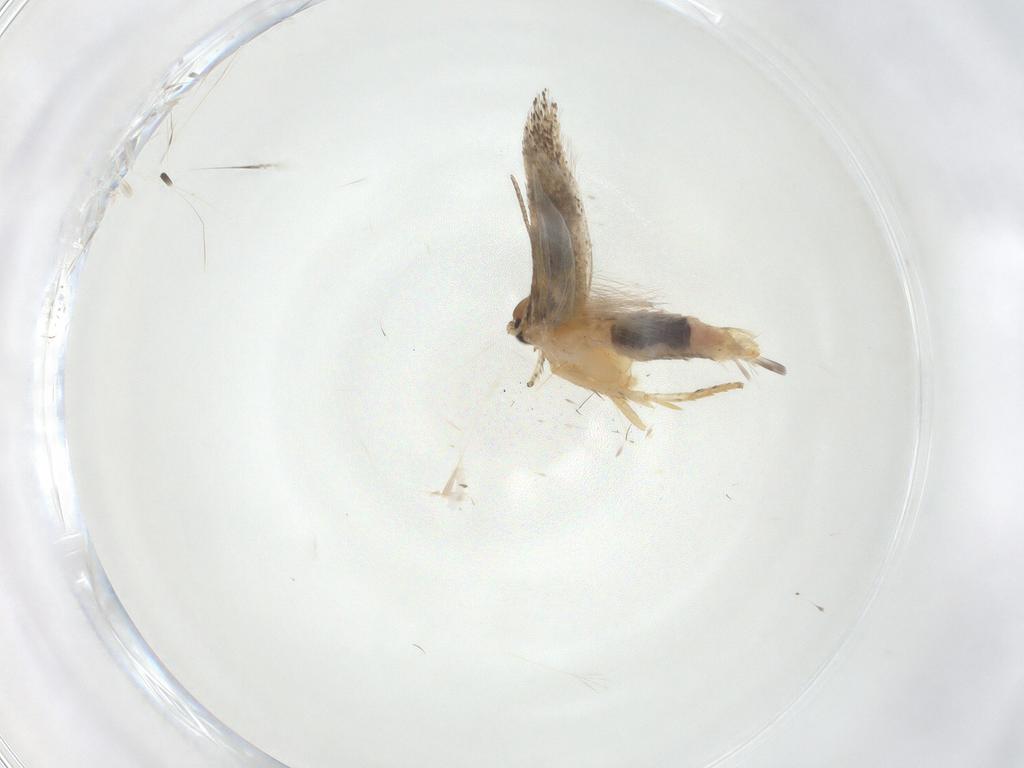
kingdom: Animalia
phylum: Arthropoda
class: Insecta
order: Lepidoptera
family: Gelechiidae
